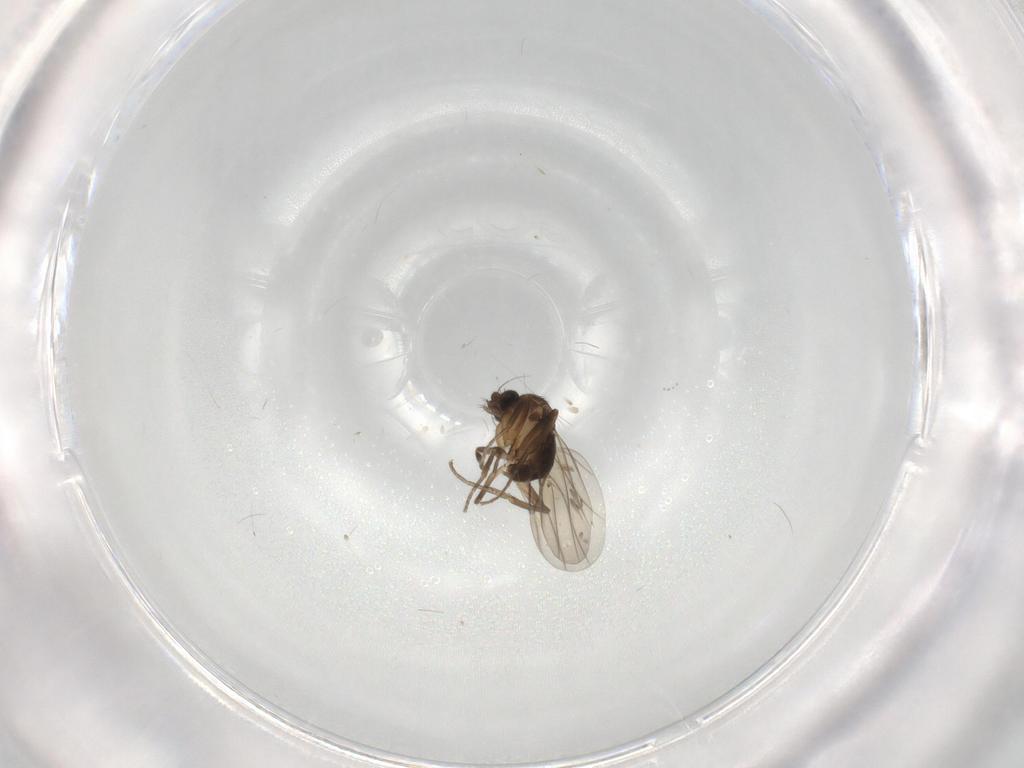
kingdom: Animalia
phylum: Arthropoda
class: Insecta
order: Diptera
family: Phoridae
